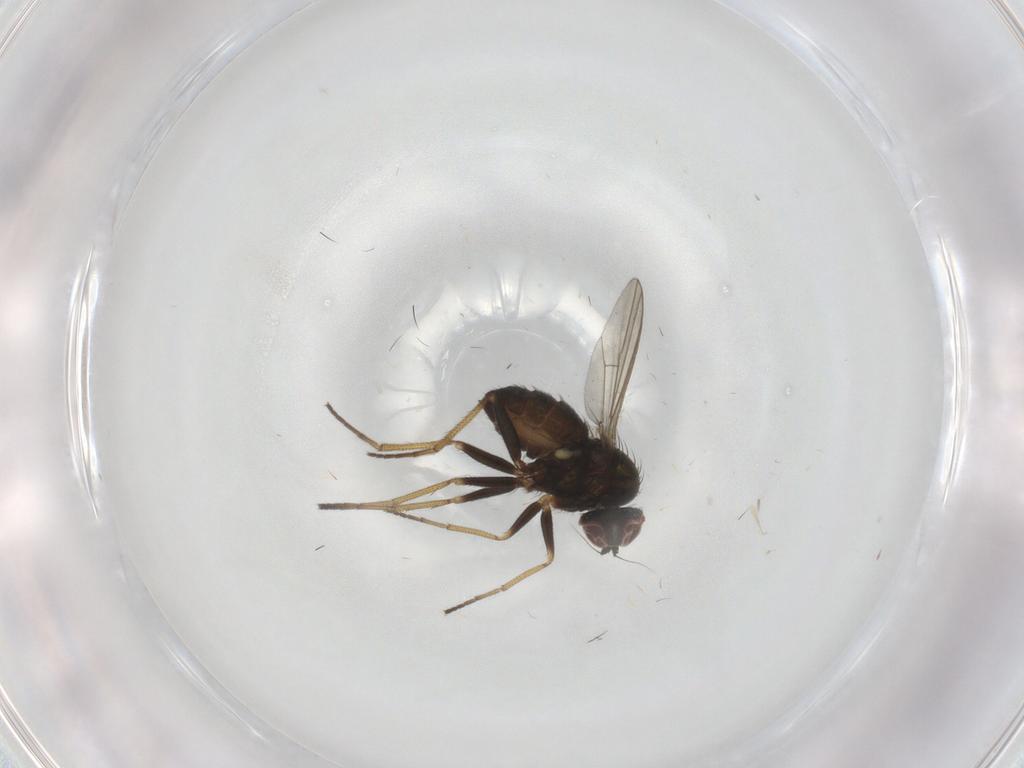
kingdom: Animalia
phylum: Arthropoda
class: Insecta
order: Diptera
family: Dolichopodidae
